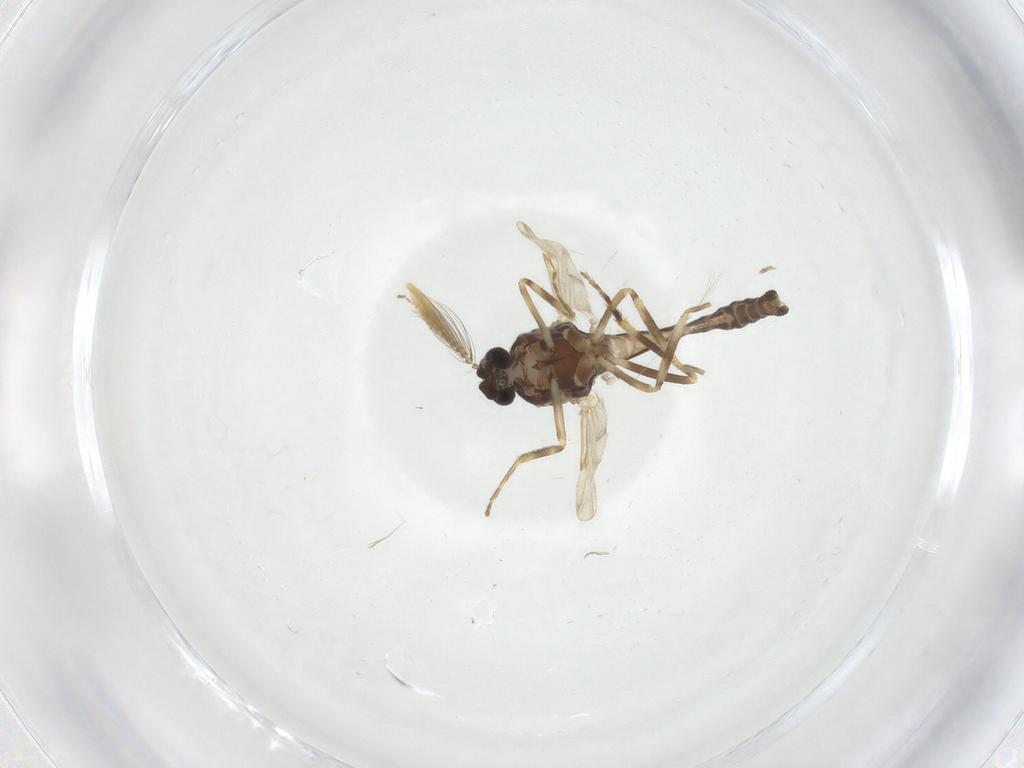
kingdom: Animalia
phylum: Arthropoda
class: Insecta
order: Diptera
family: Ceratopogonidae
